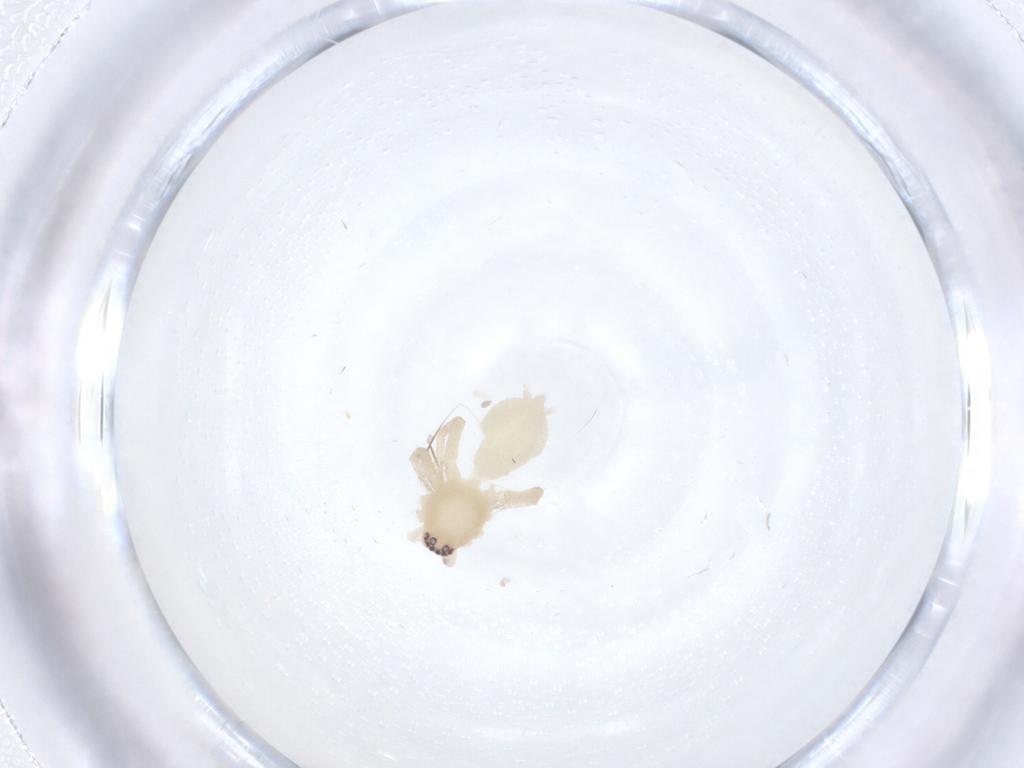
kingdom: Animalia
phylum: Arthropoda
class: Arachnida
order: Araneae
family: Clubionidae
